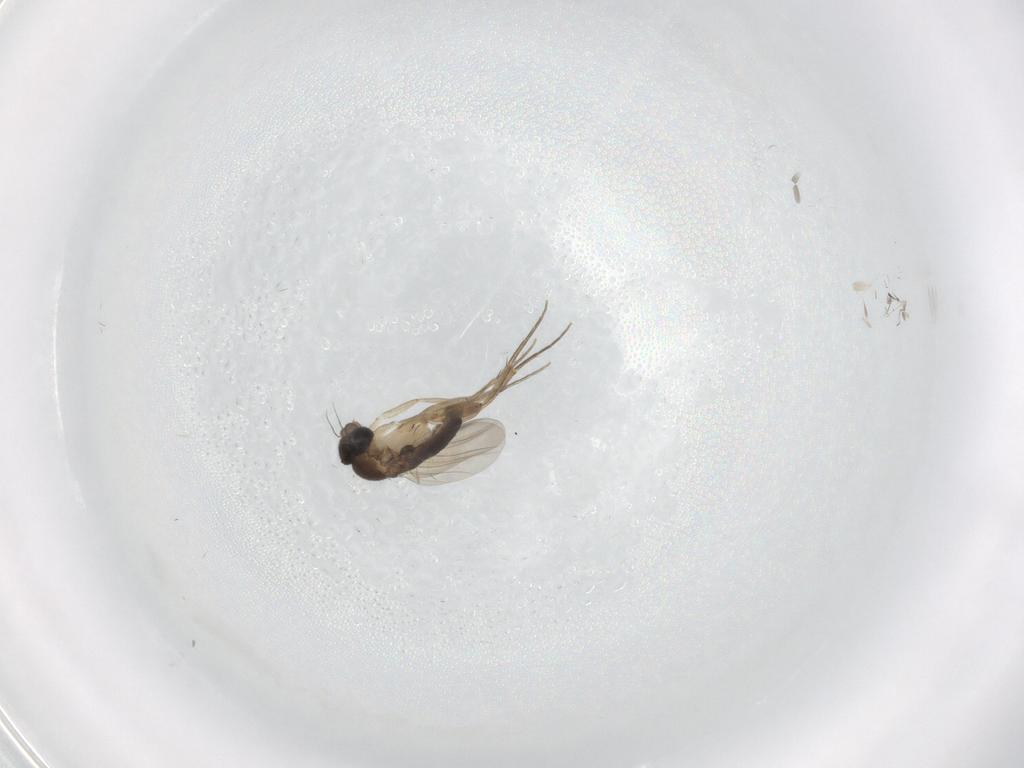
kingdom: Animalia
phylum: Arthropoda
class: Insecta
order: Diptera
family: Phoridae
